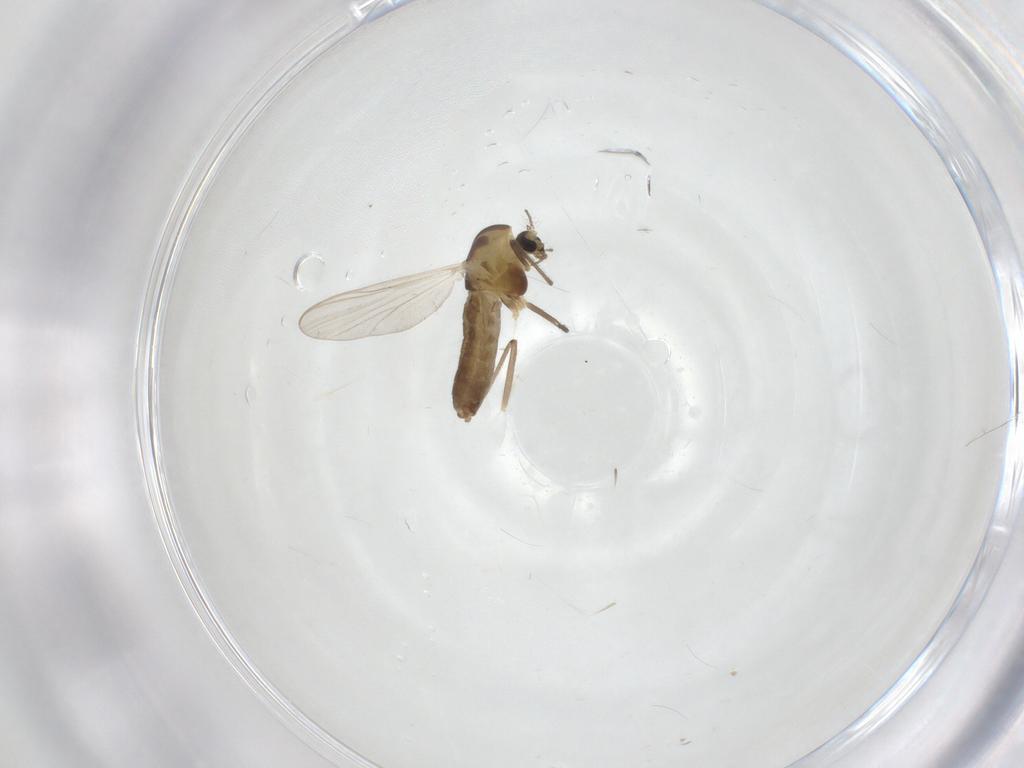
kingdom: Animalia
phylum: Arthropoda
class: Insecta
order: Diptera
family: Chironomidae
